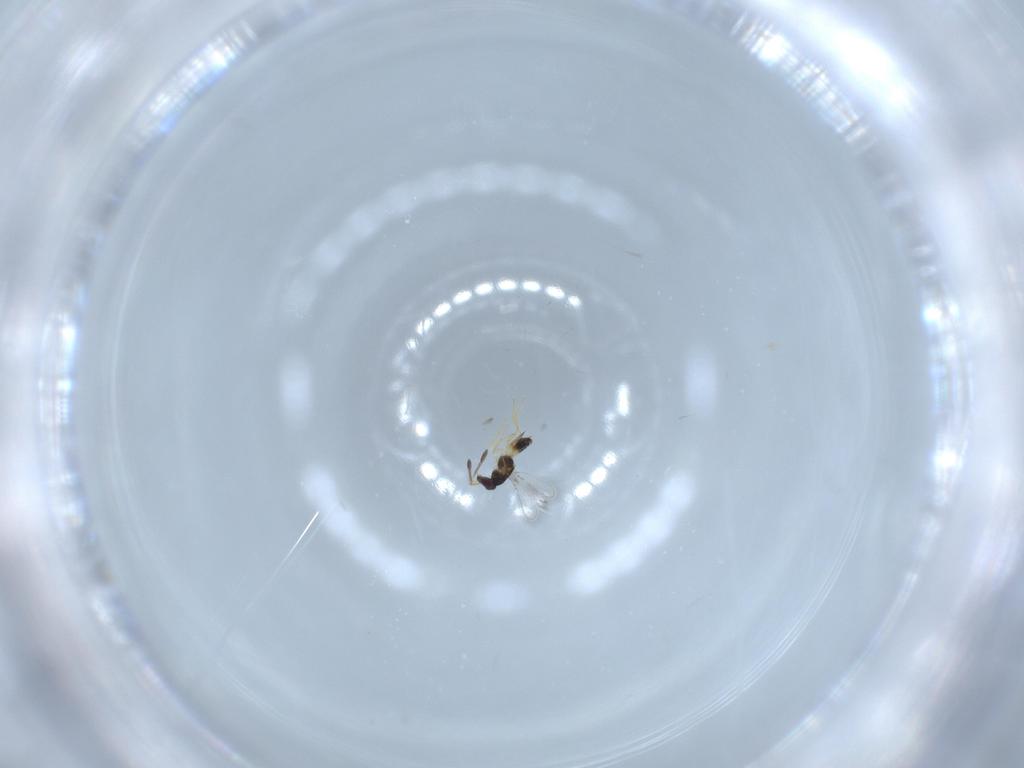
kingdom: Animalia
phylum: Arthropoda
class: Insecta
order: Hymenoptera
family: Mymaridae
